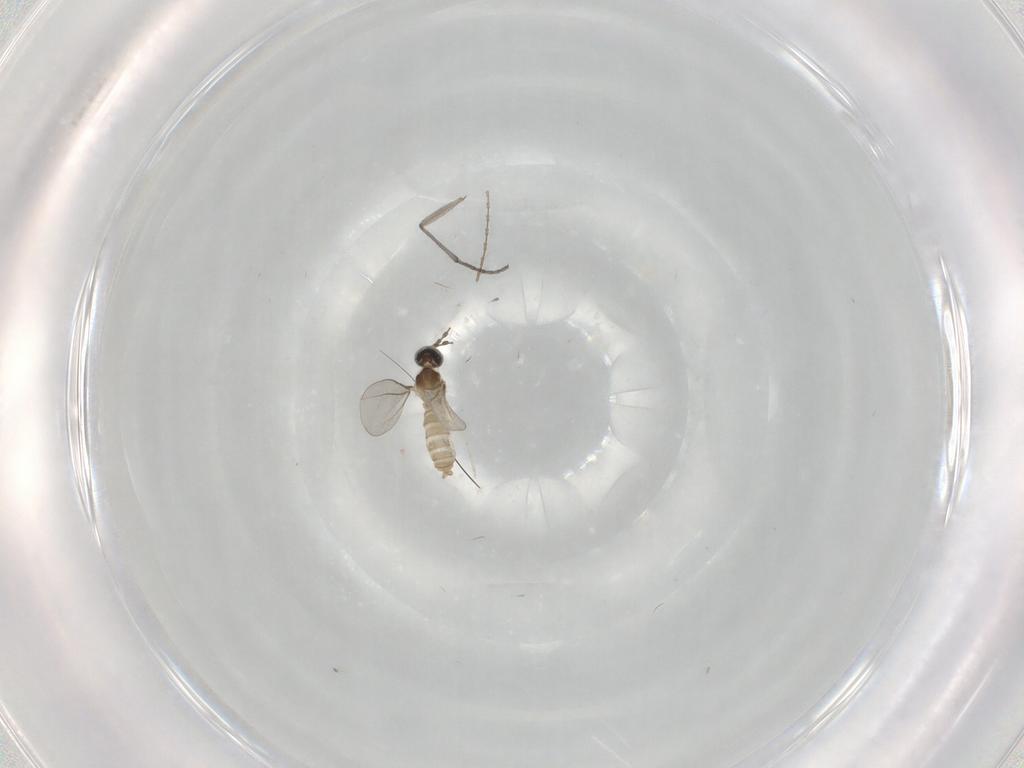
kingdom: Animalia
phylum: Arthropoda
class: Insecta
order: Diptera
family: Cecidomyiidae
